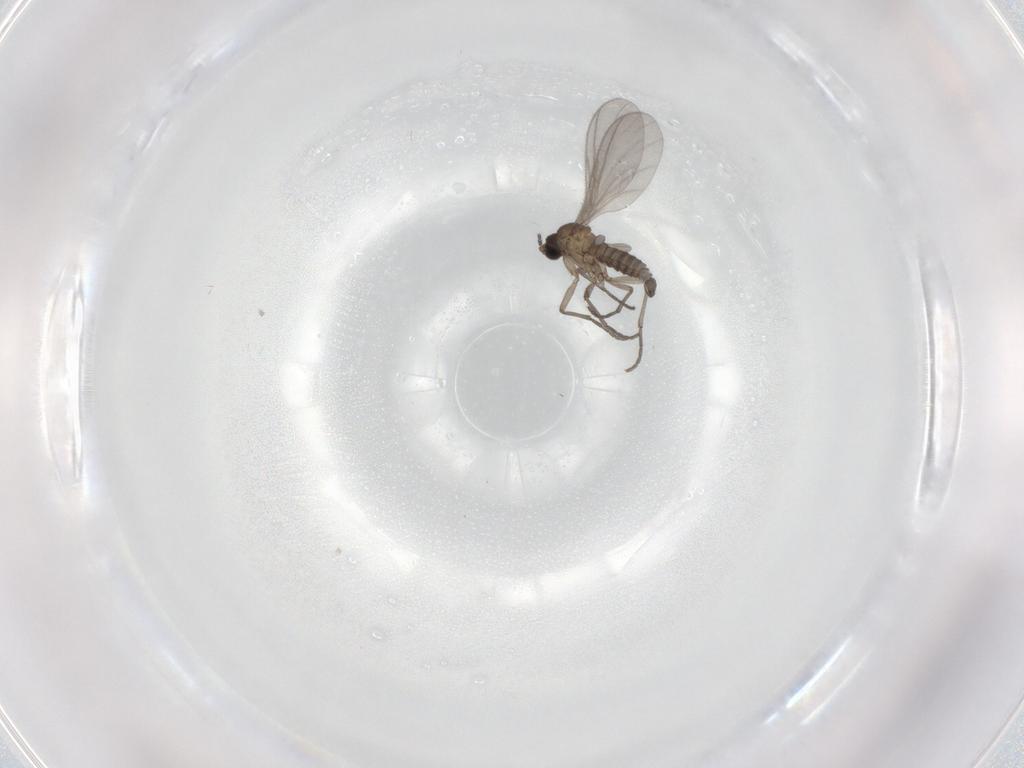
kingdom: Animalia
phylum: Arthropoda
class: Insecta
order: Diptera
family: Sciaridae
